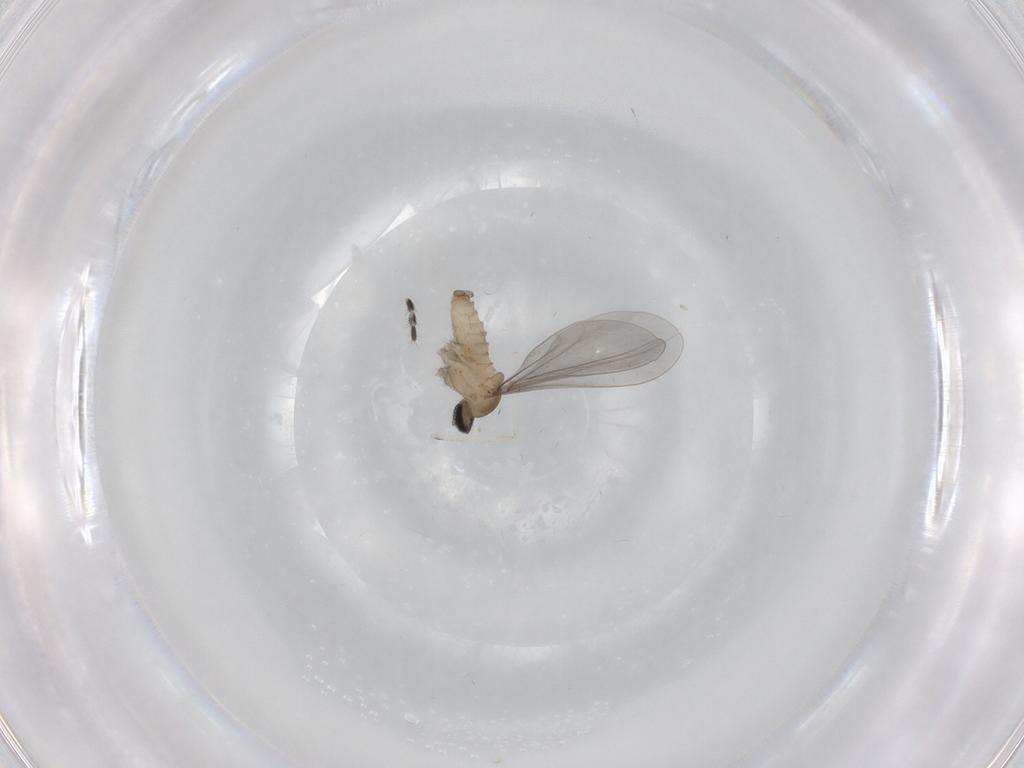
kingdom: Animalia
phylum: Arthropoda
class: Insecta
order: Diptera
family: Cecidomyiidae
